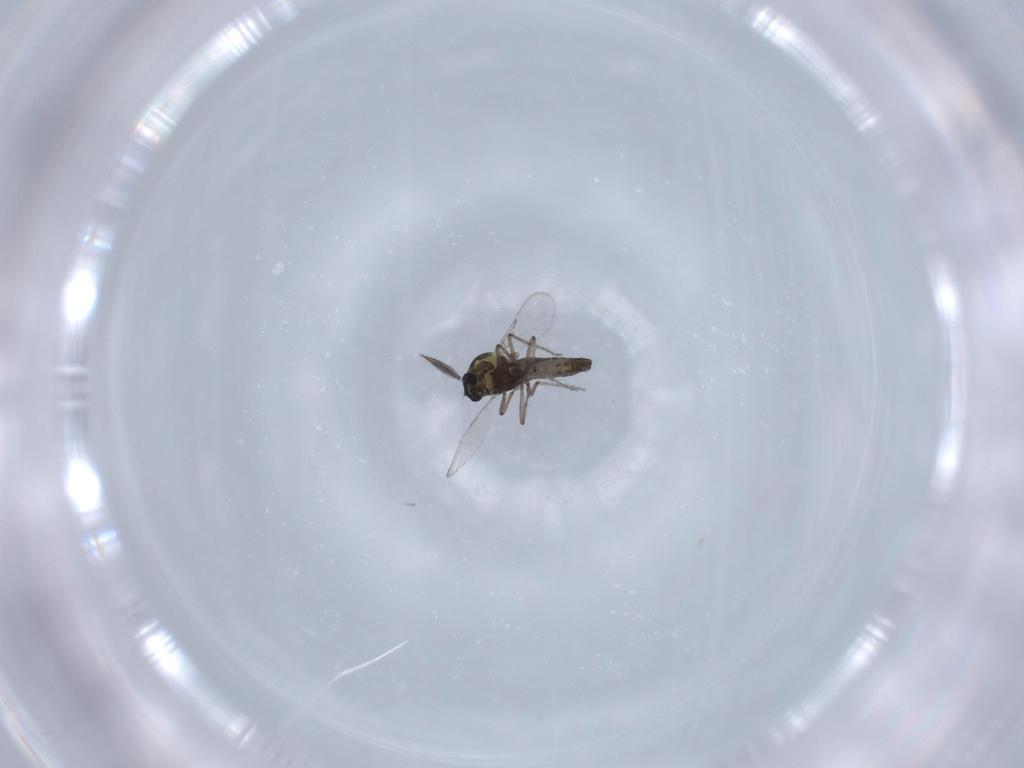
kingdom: Animalia
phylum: Arthropoda
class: Insecta
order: Diptera
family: Ceratopogonidae
